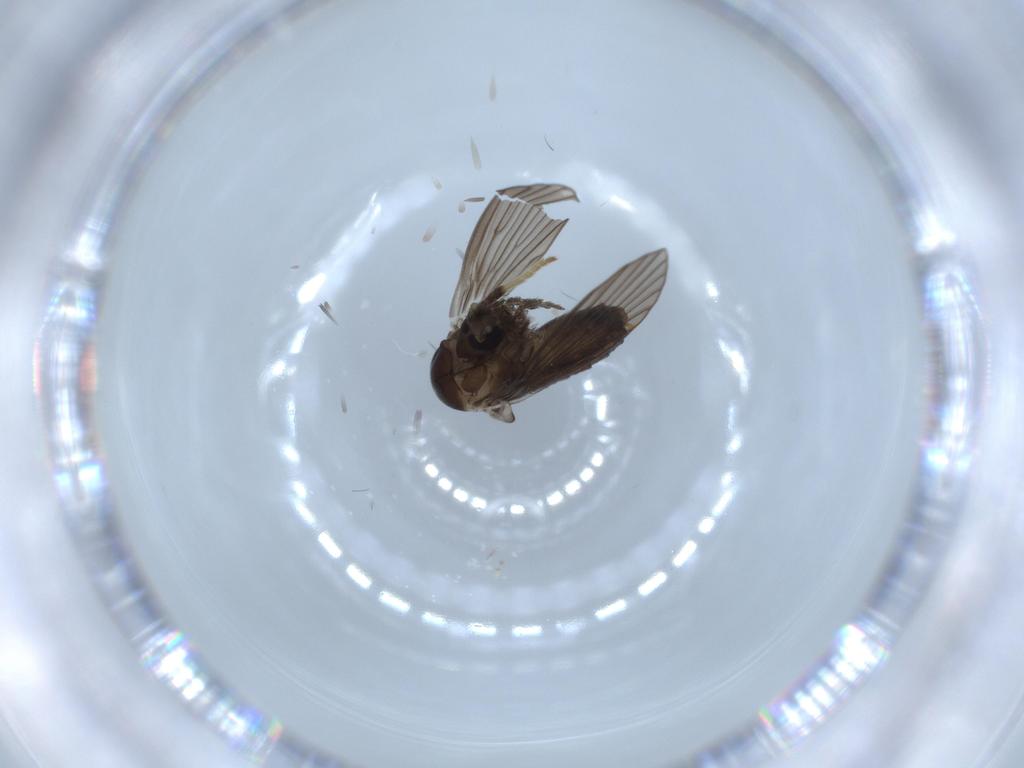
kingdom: Animalia
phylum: Arthropoda
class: Insecta
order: Diptera
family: Psychodidae
